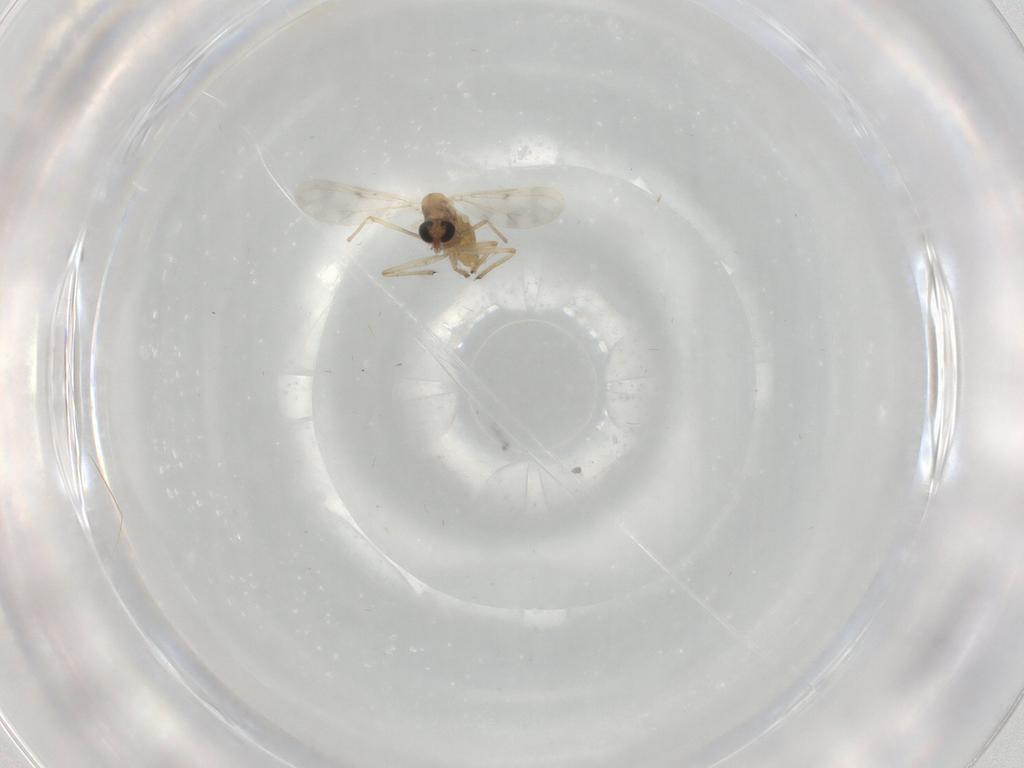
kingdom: Animalia
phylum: Arthropoda
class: Insecta
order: Diptera
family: Chironomidae
